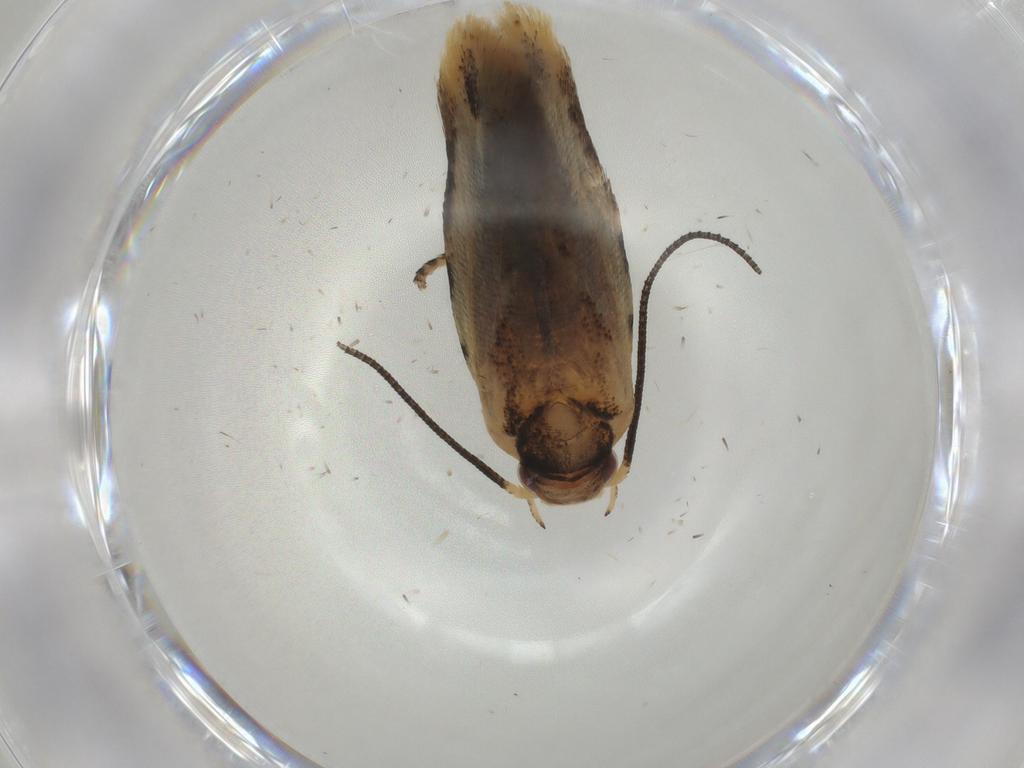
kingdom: Animalia
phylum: Arthropoda
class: Insecta
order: Lepidoptera
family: Gelechiidae
